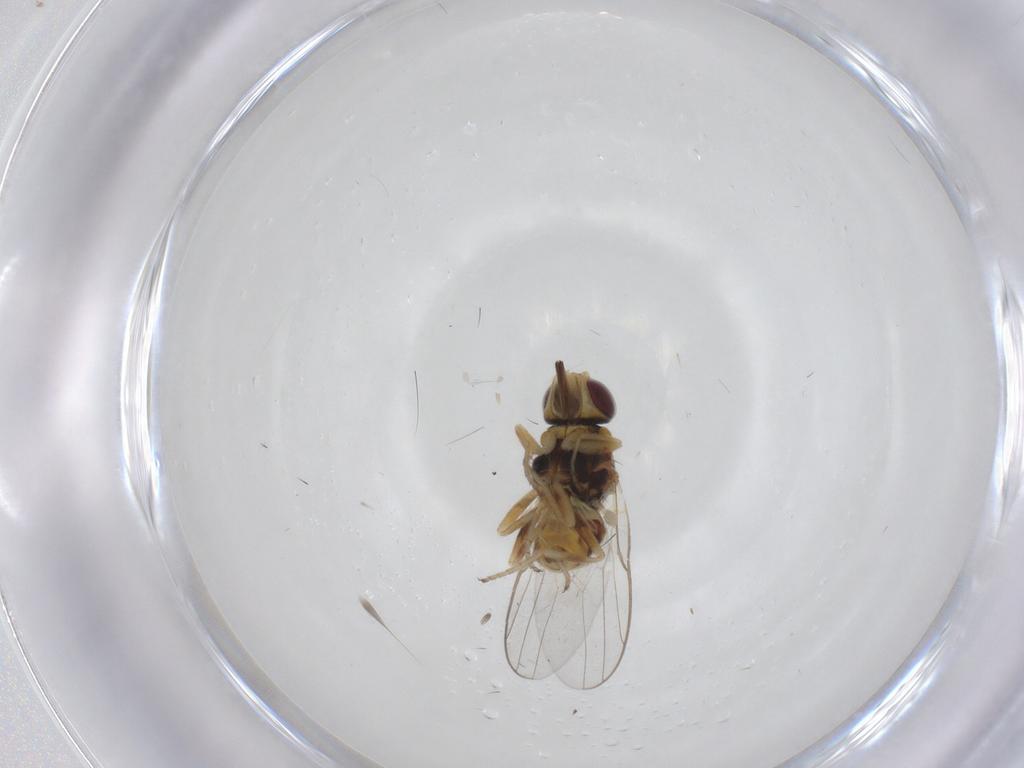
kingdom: Animalia
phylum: Arthropoda
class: Insecta
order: Diptera
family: Chloropidae
